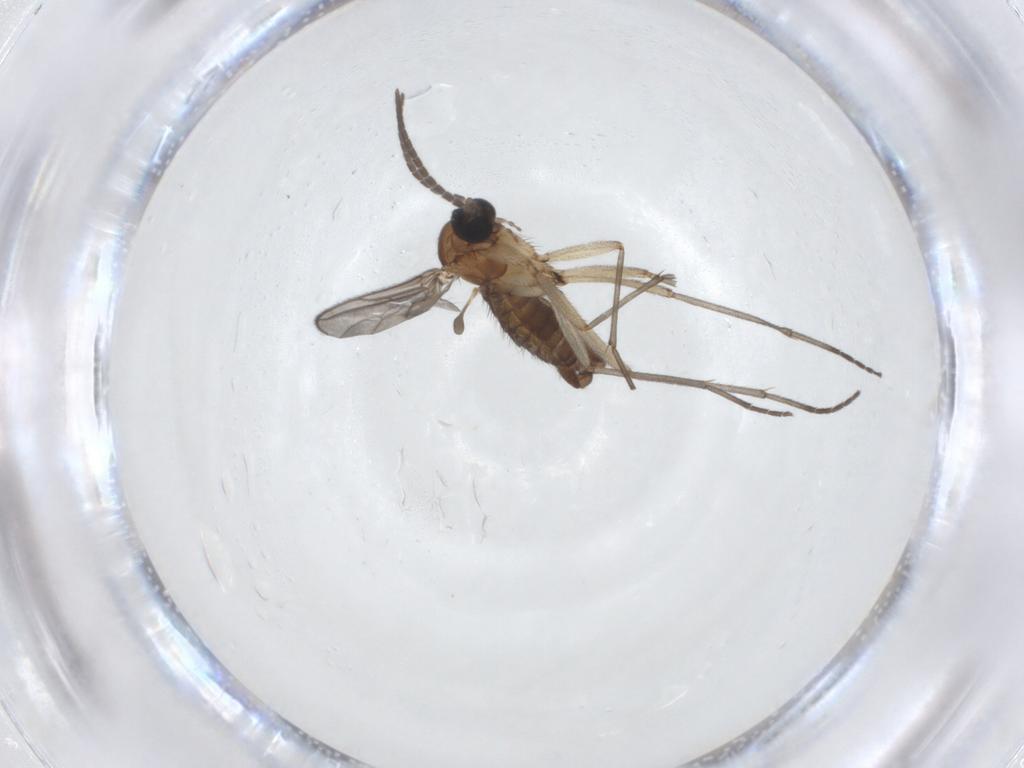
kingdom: Animalia
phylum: Arthropoda
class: Insecta
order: Diptera
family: Sciaridae
